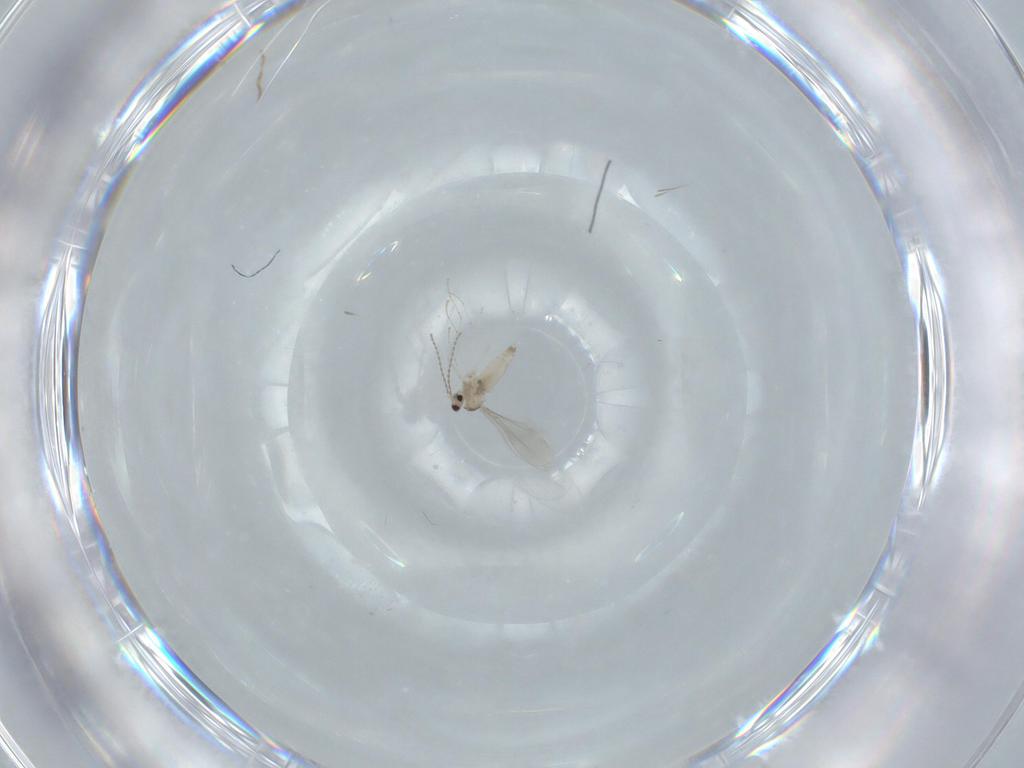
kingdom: Animalia
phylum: Arthropoda
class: Insecta
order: Diptera
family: Cecidomyiidae
